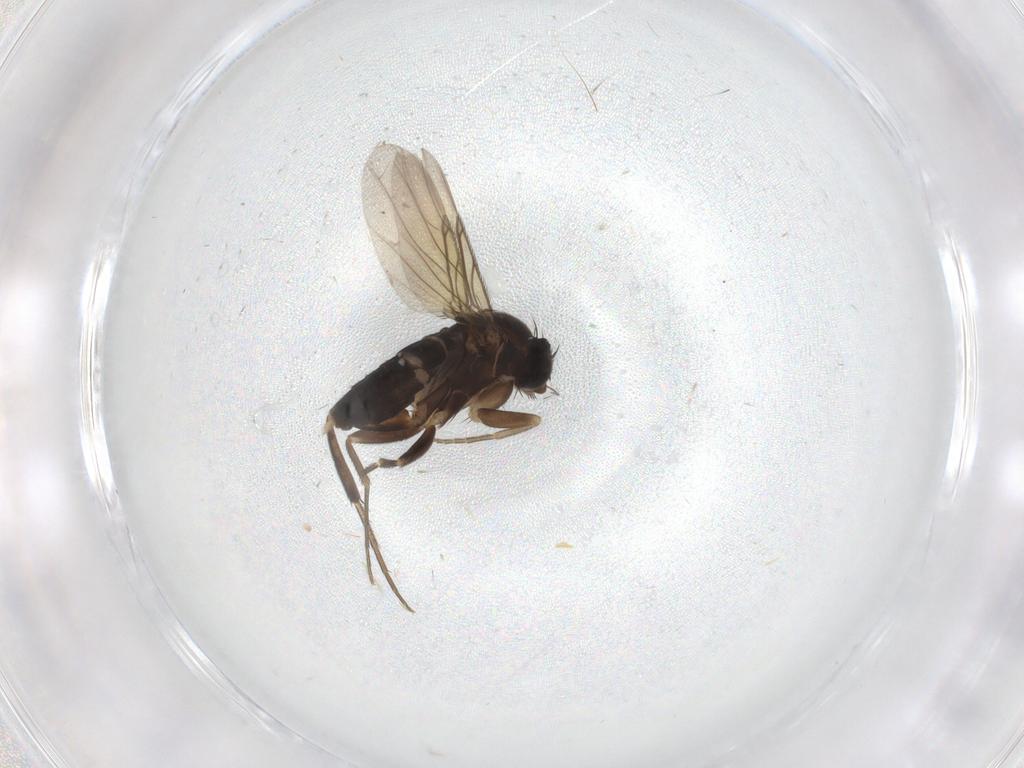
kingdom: Animalia
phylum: Arthropoda
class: Insecta
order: Diptera
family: Phoridae
